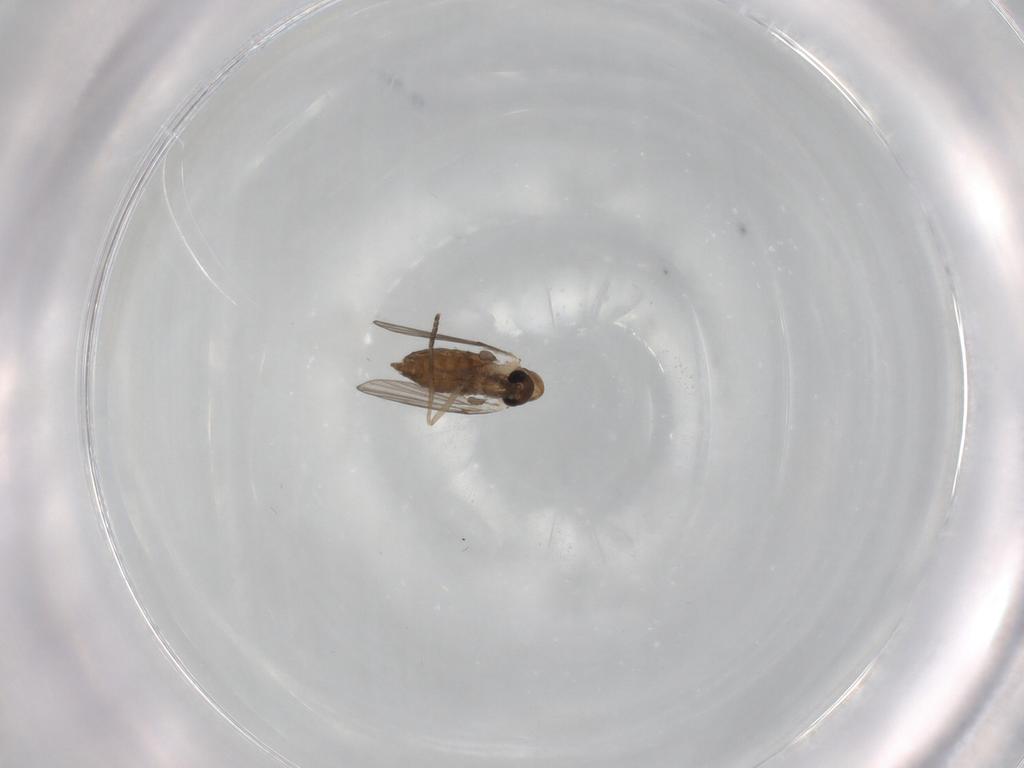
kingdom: Animalia
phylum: Arthropoda
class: Insecta
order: Diptera
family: Psychodidae
